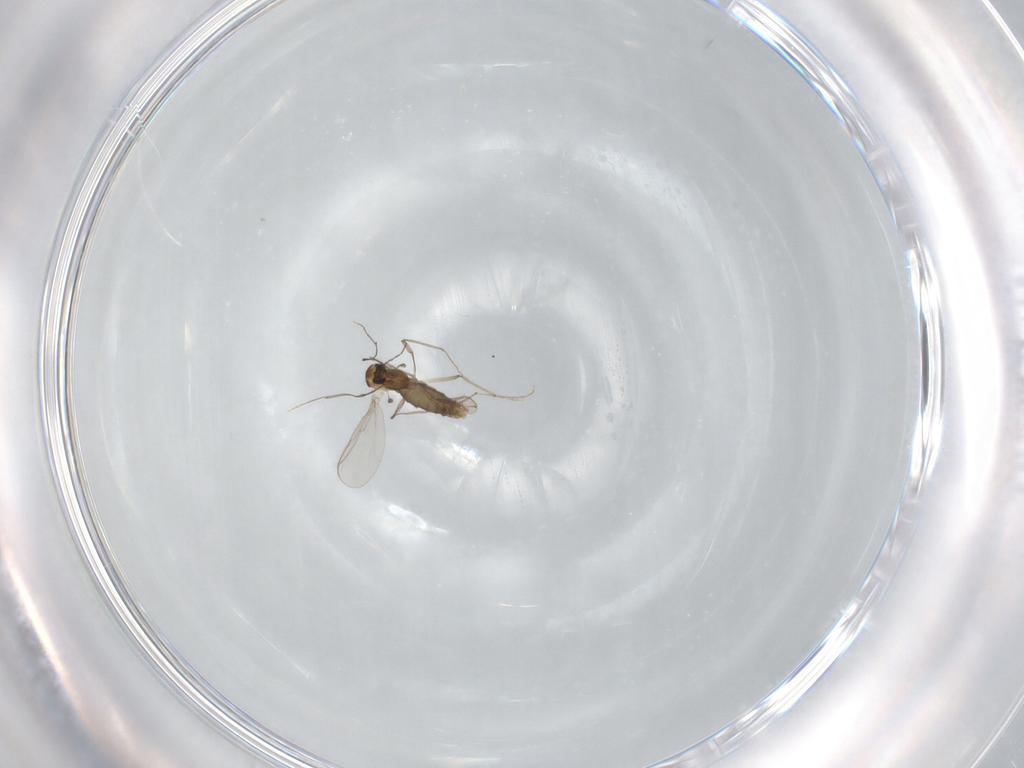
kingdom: Animalia
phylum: Arthropoda
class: Insecta
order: Diptera
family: Chironomidae
